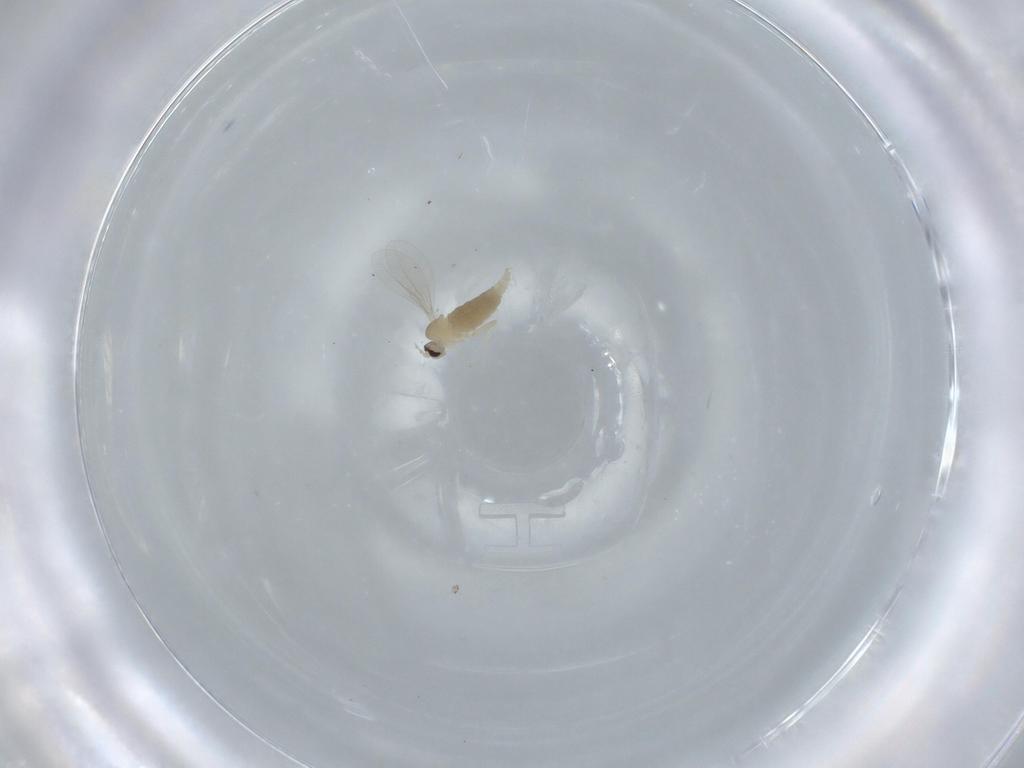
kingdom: Animalia
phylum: Arthropoda
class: Insecta
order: Diptera
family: Cecidomyiidae
